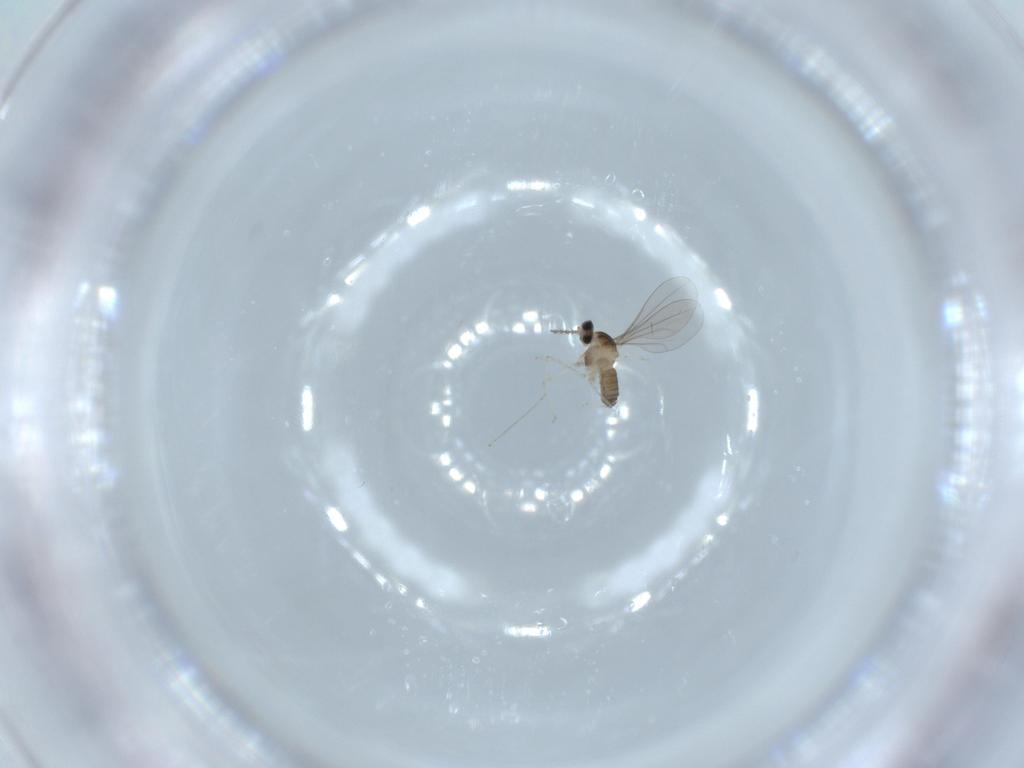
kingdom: Animalia
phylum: Arthropoda
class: Insecta
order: Diptera
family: Cecidomyiidae
